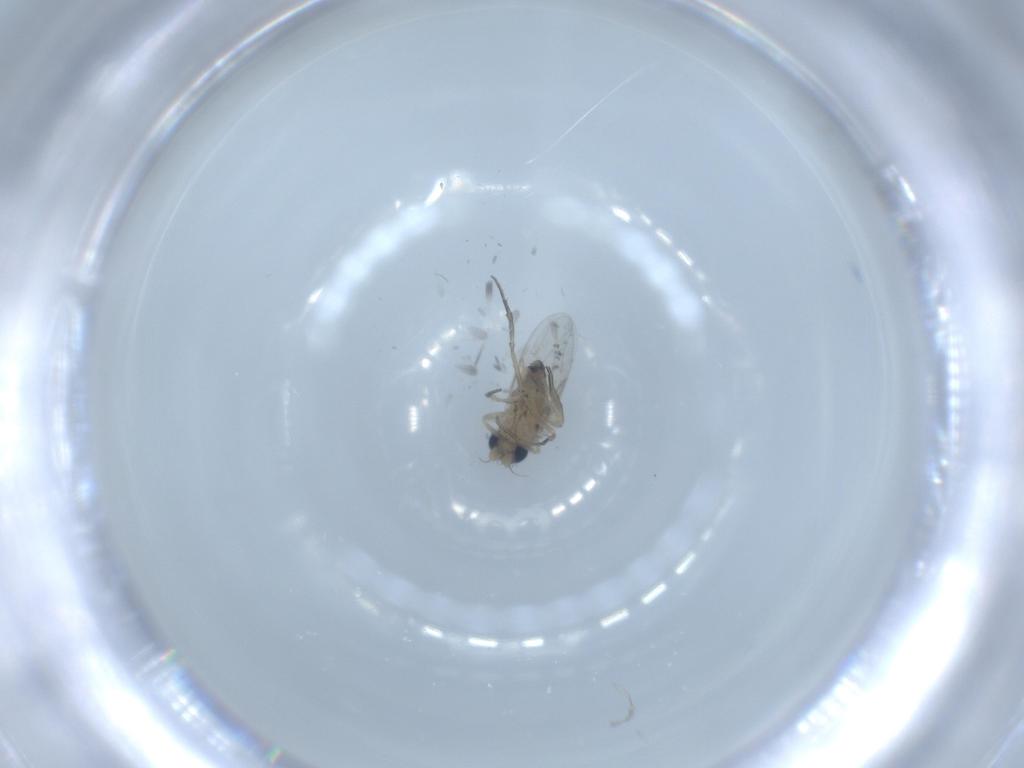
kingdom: Animalia
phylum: Arthropoda
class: Insecta
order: Diptera
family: Phoridae
